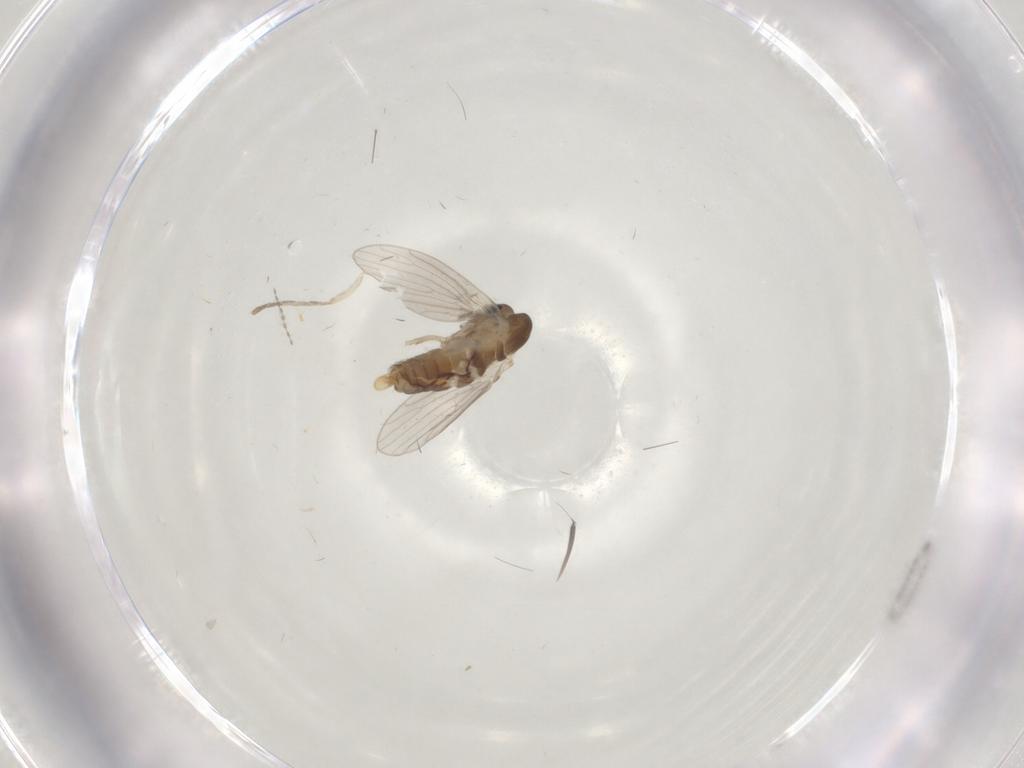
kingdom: Animalia
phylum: Arthropoda
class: Insecta
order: Diptera
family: Cecidomyiidae
